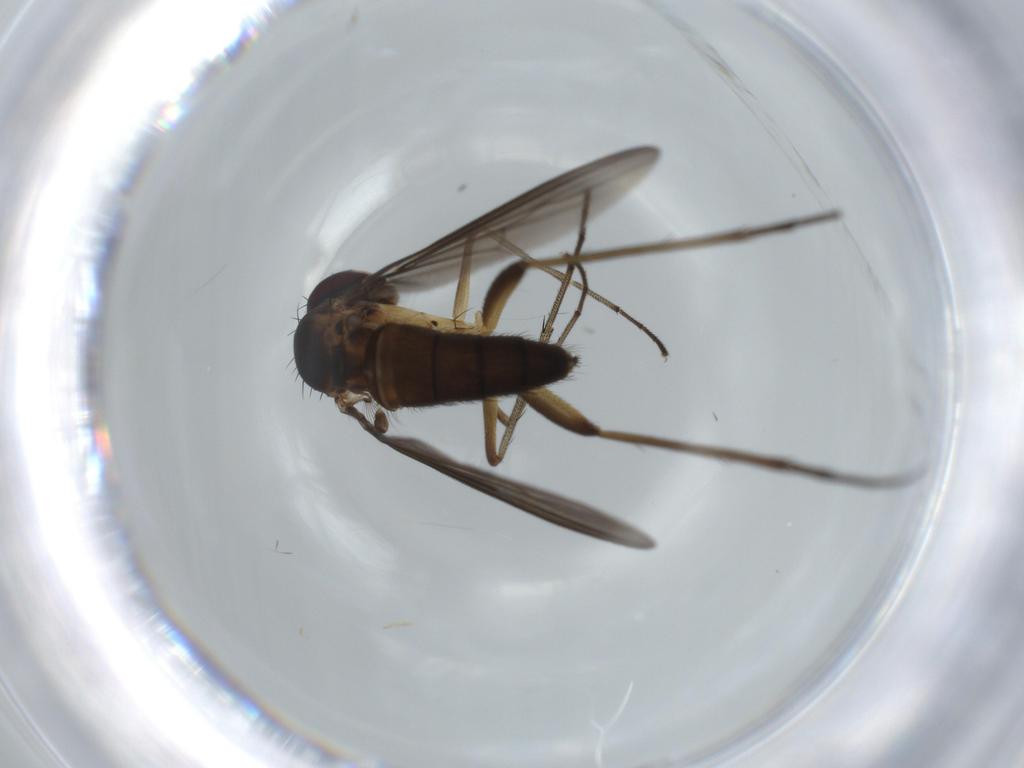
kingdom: Animalia
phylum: Arthropoda
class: Insecta
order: Diptera
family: Dolichopodidae
